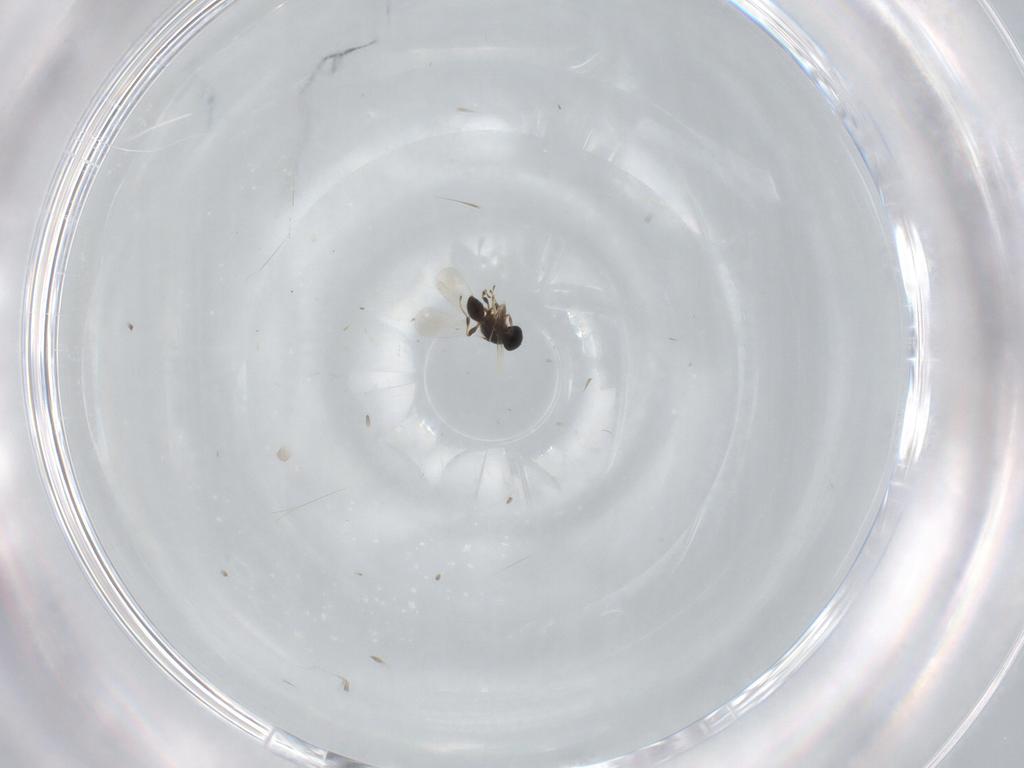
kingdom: Animalia
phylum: Arthropoda
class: Insecta
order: Hymenoptera
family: Platygastridae
